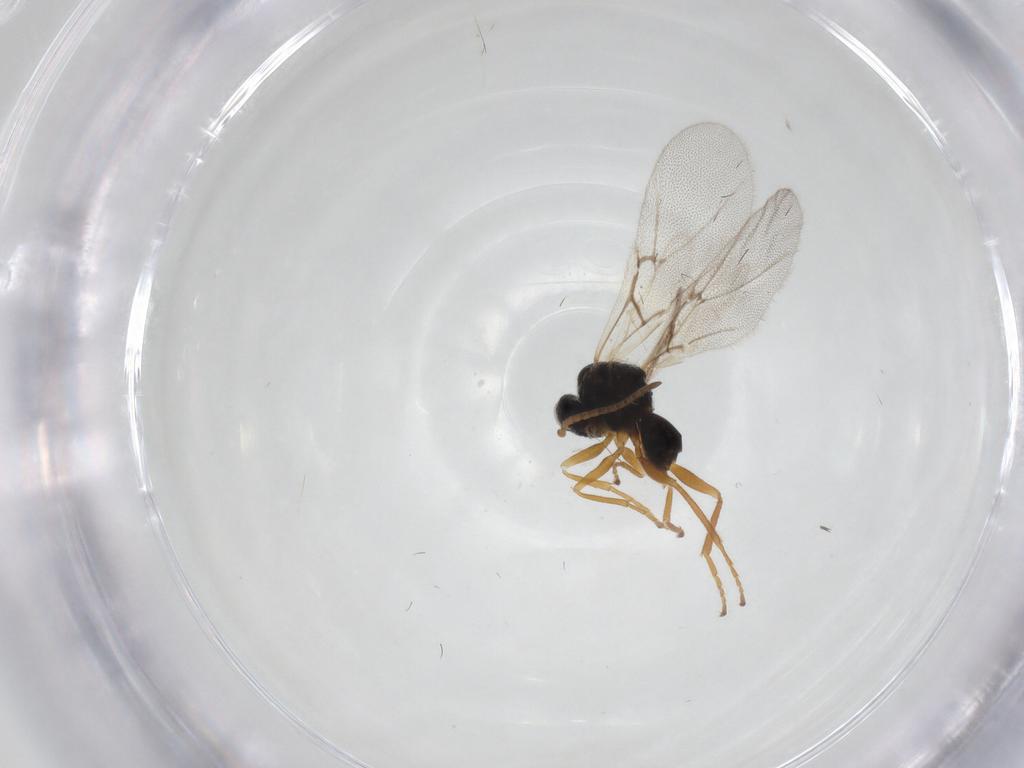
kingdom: Animalia
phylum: Arthropoda
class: Insecta
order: Hymenoptera
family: Cynipidae
